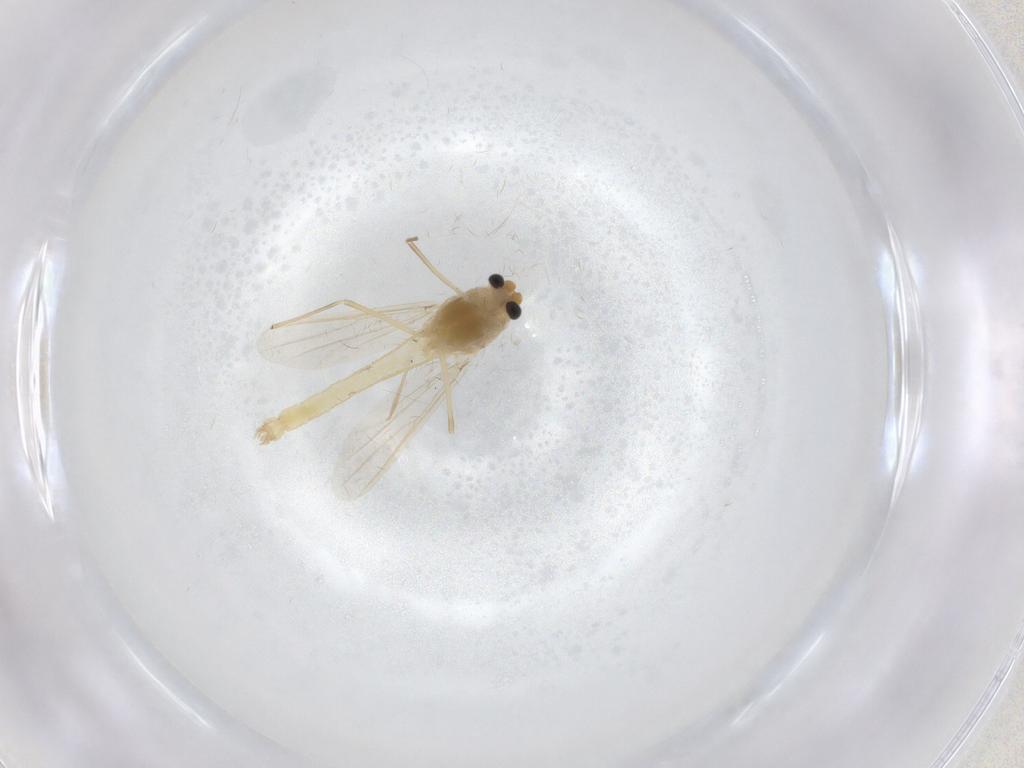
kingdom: Animalia
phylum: Arthropoda
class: Insecta
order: Diptera
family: Chironomidae
